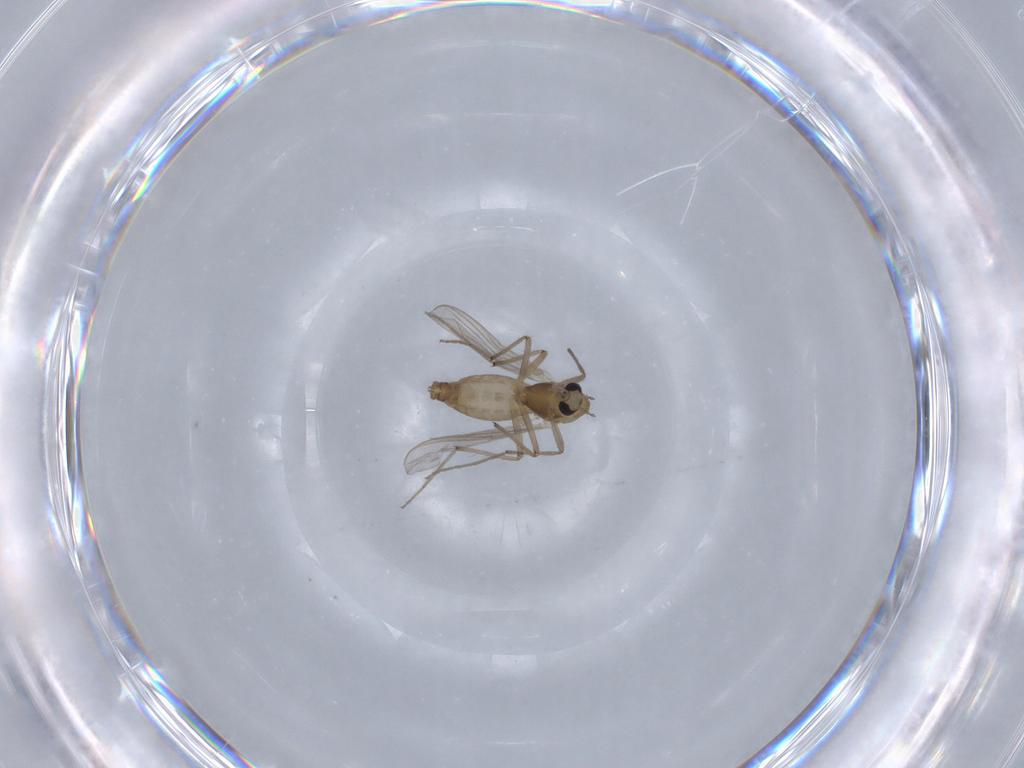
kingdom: Animalia
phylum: Arthropoda
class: Insecta
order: Diptera
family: Chironomidae
